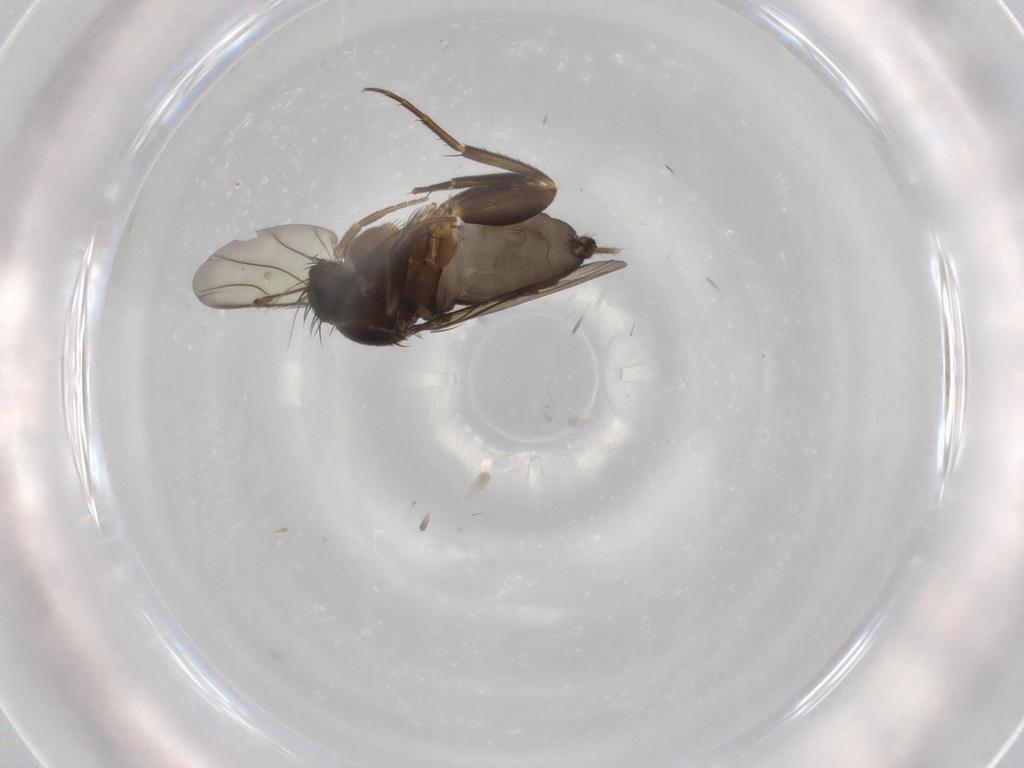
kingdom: Animalia
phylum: Arthropoda
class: Insecta
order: Diptera
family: Phoridae
